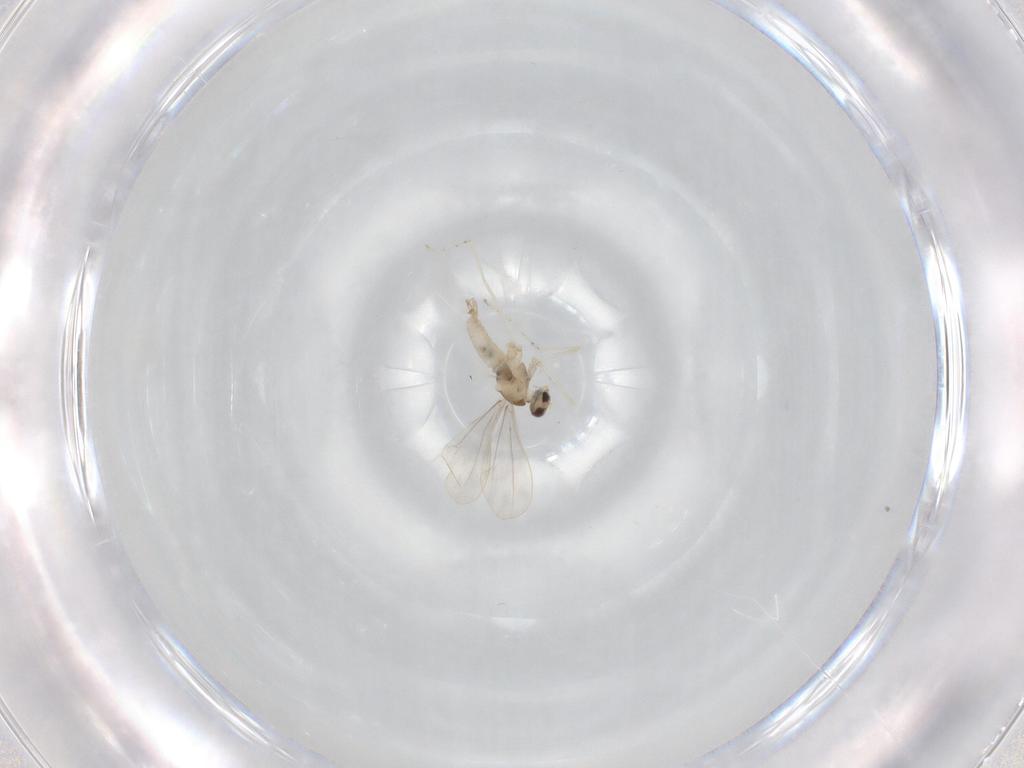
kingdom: Animalia
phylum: Arthropoda
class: Insecta
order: Diptera
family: Cecidomyiidae
